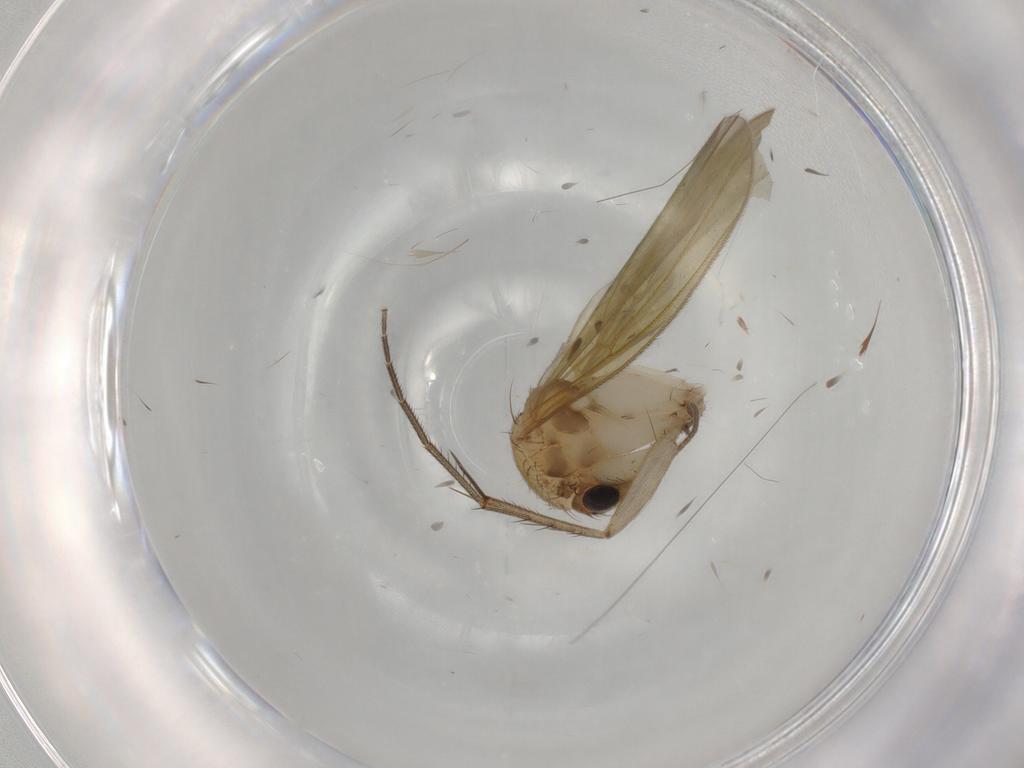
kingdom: Animalia
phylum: Arthropoda
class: Insecta
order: Diptera
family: Mycetophilidae
